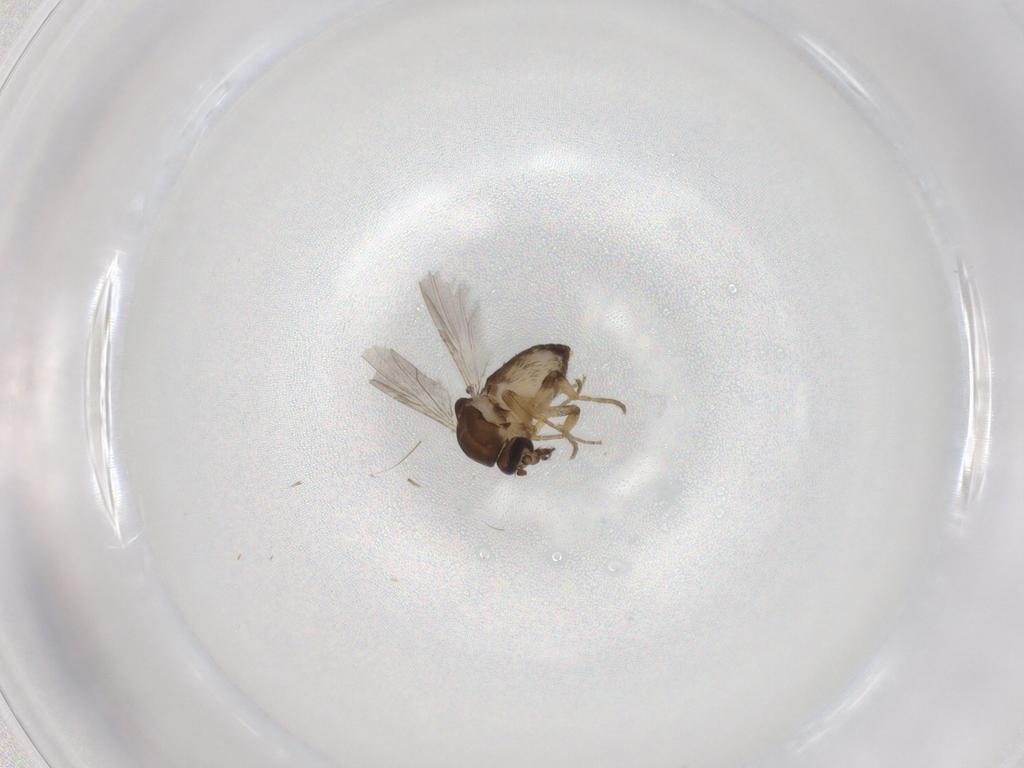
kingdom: Animalia
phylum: Arthropoda
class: Insecta
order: Diptera
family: Ceratopogonidae
